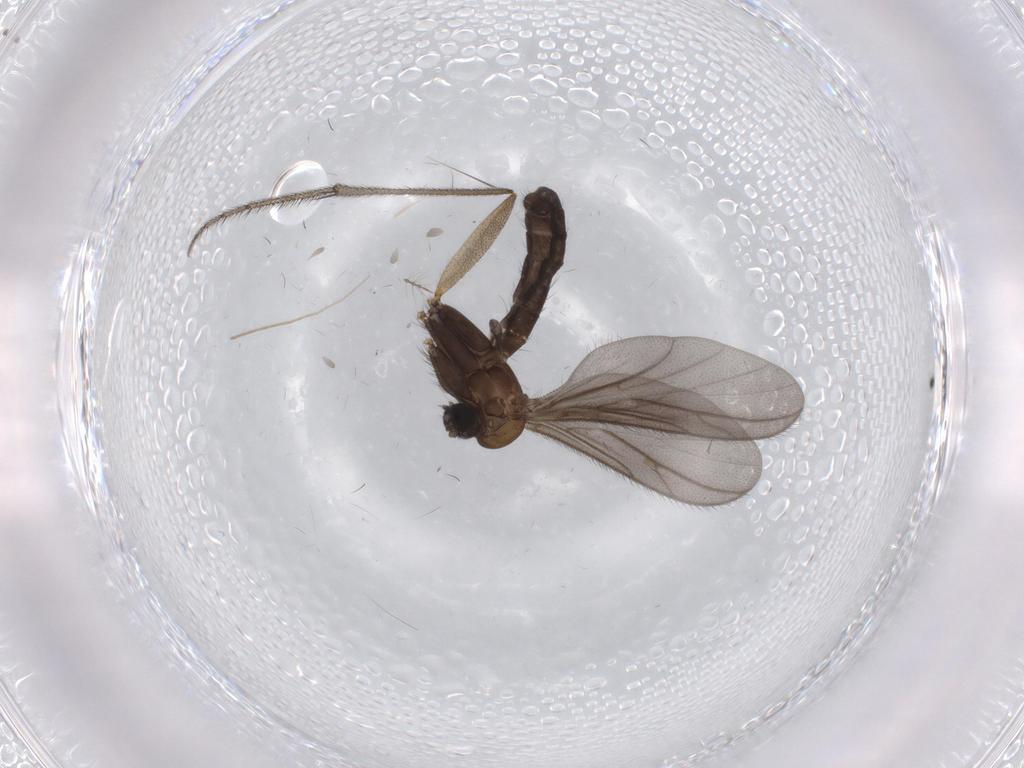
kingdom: Animalia
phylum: Arthropoda
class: Insecta
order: Diptera
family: Ditomyiidae
